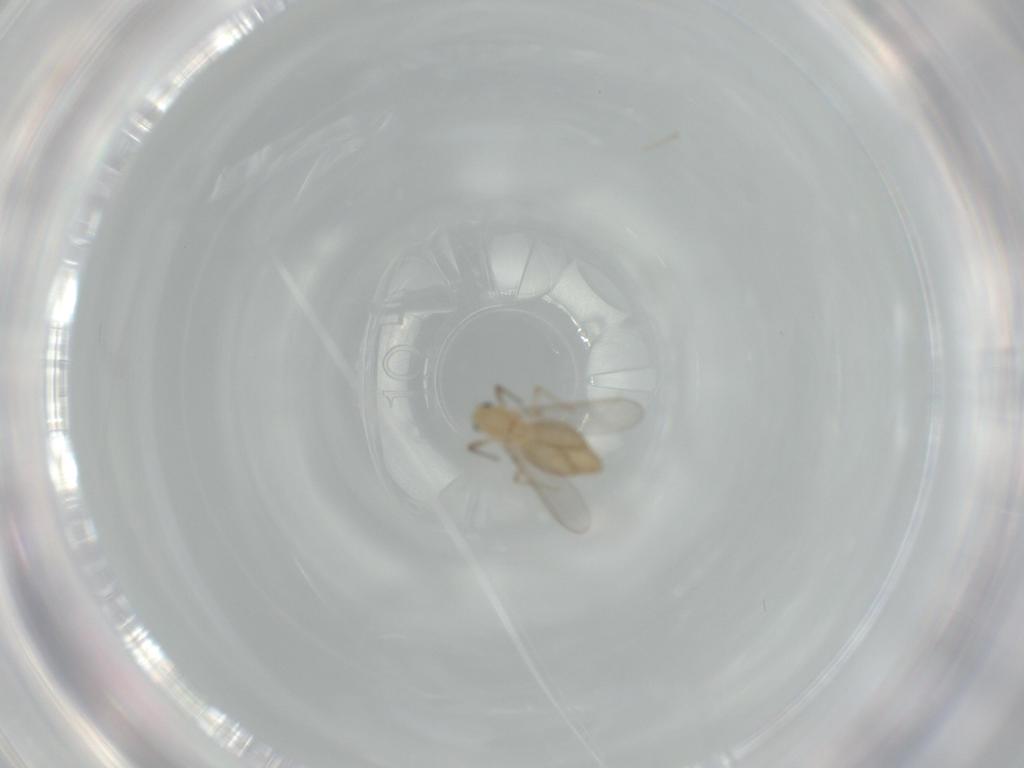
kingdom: Animalia
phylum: Arthropoda
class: Insecta
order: Diptera
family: Chironomidae
